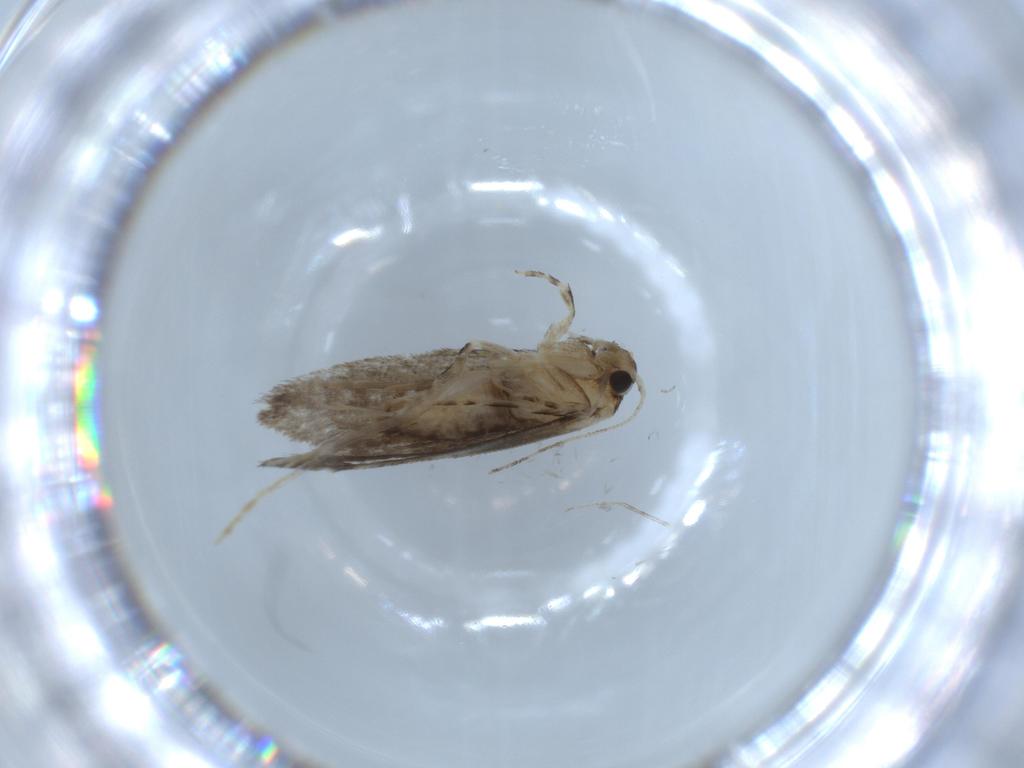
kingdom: Animalia
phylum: Arthropoda
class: Insecta
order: Lepidoptera
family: Tineidae
